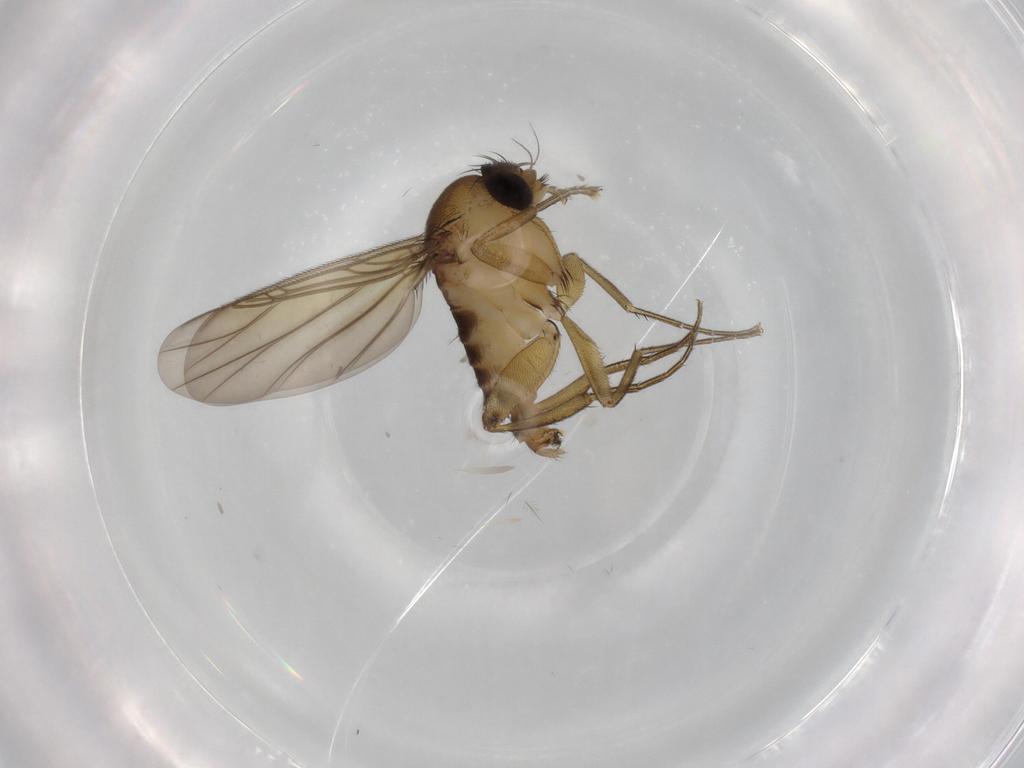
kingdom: Animalia
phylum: Arthropoda
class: Insecta
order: Diptera
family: Phoridae
